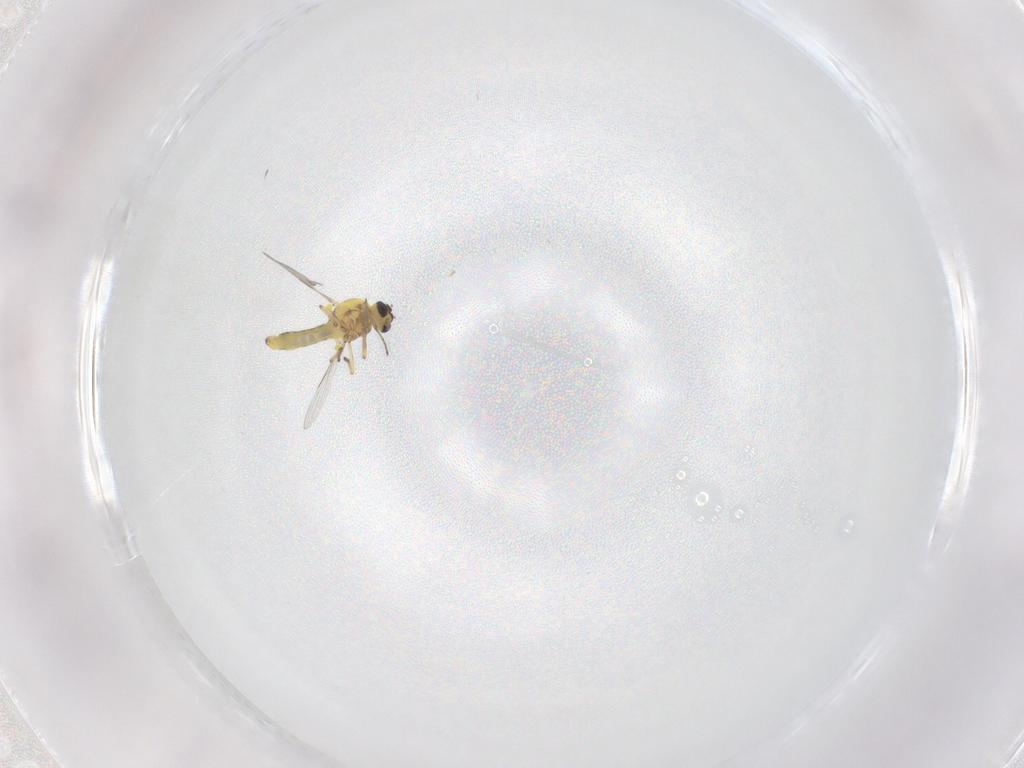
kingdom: Animalia
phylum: Arthropoda
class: Insecta
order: Diptera
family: Ceratopogonidae
